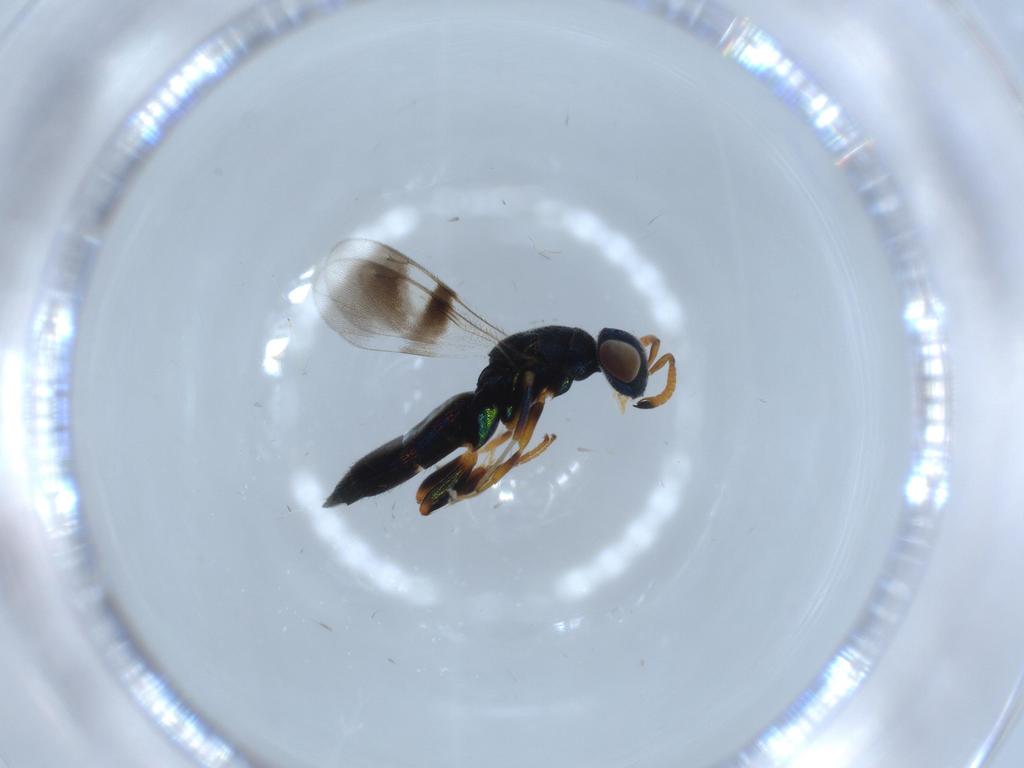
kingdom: Animalia
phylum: Arthropoda
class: Insecta
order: Hymenoptera
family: Cleonyminae
